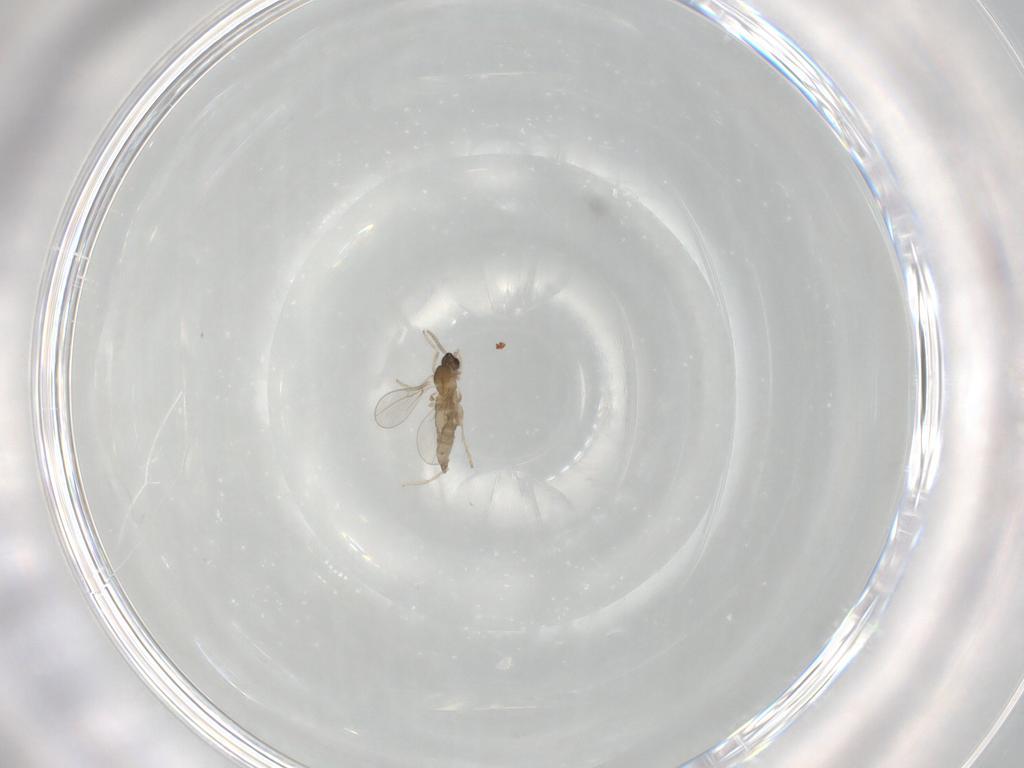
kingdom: Animalia
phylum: Arthropoda
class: Insecta
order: Diptera
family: Cecidomyiidae
